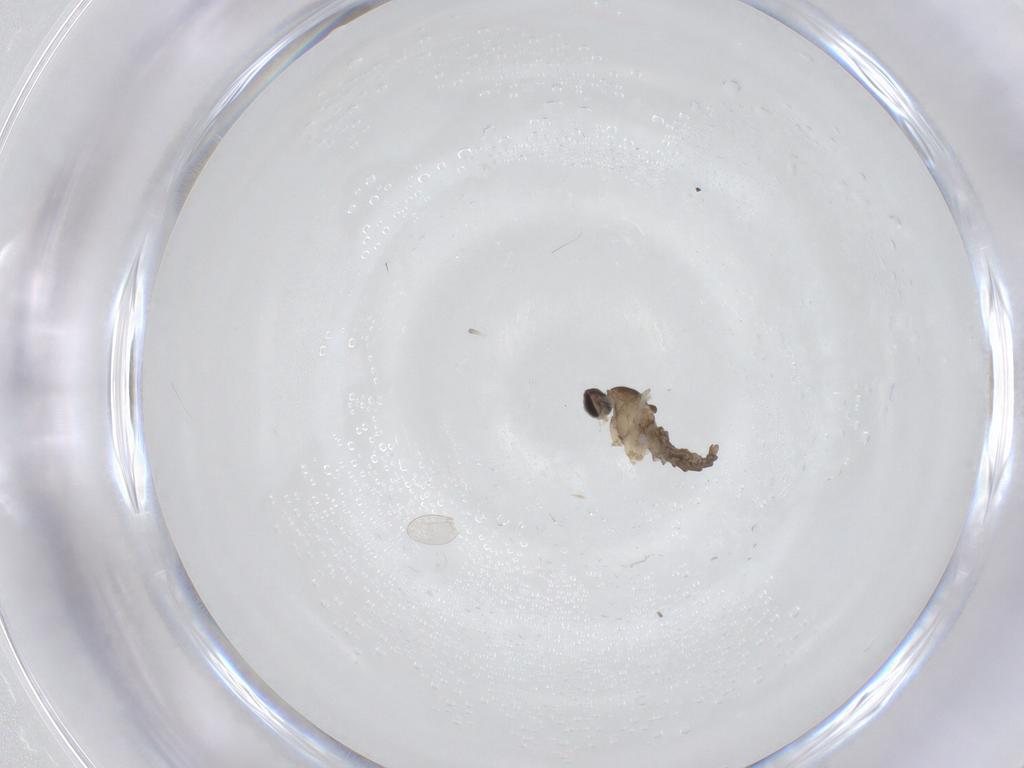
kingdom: Animalia
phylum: Arthropoda
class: Insecta
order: Diptera
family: Cecidomyiidae
